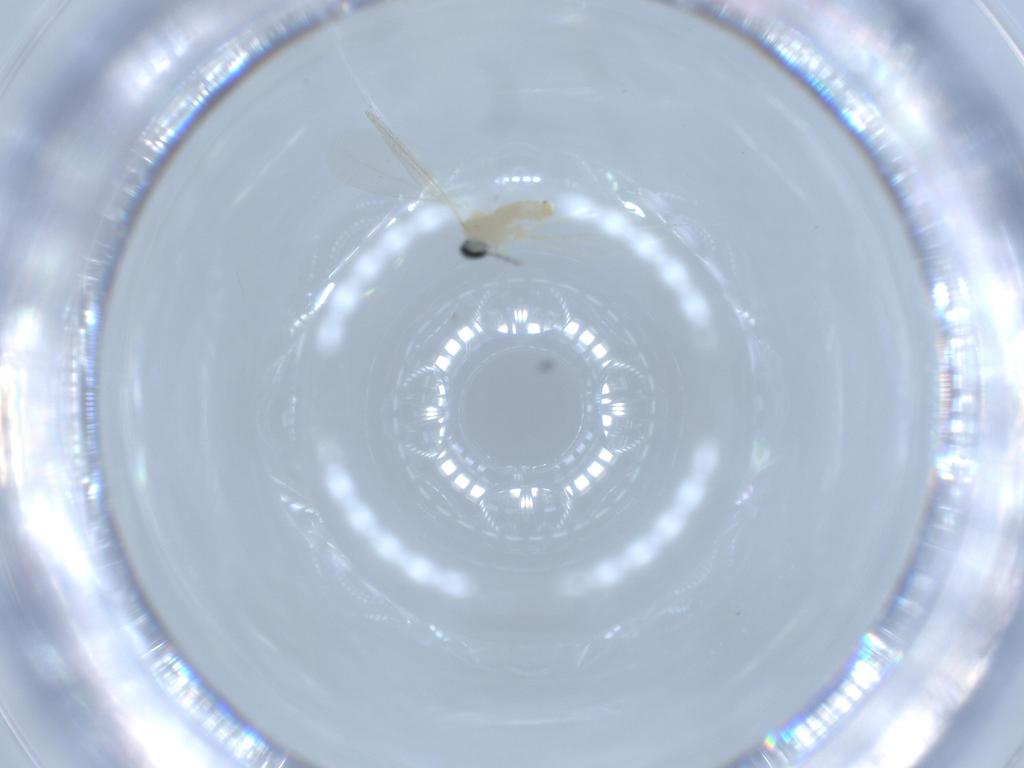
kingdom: Animalia
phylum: Arthropoda
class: Insecta
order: Diptera
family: Cecidomyiidae
